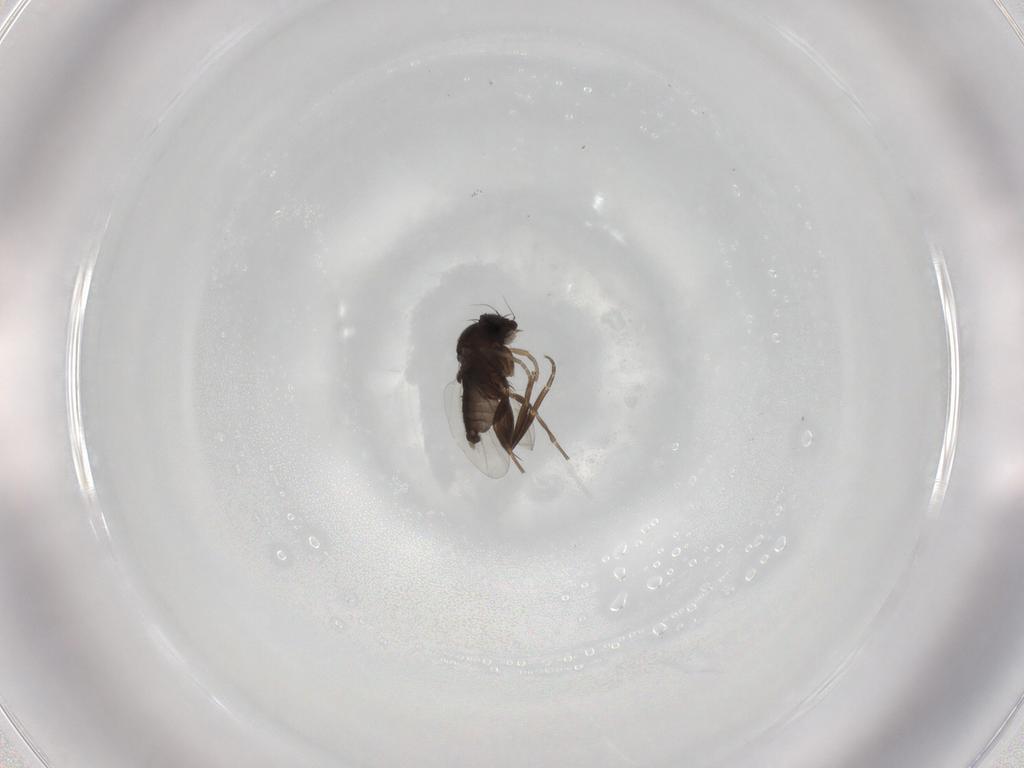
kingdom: Animalia
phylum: Arthropoda
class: Insecta
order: Diptera
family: Phoridae
